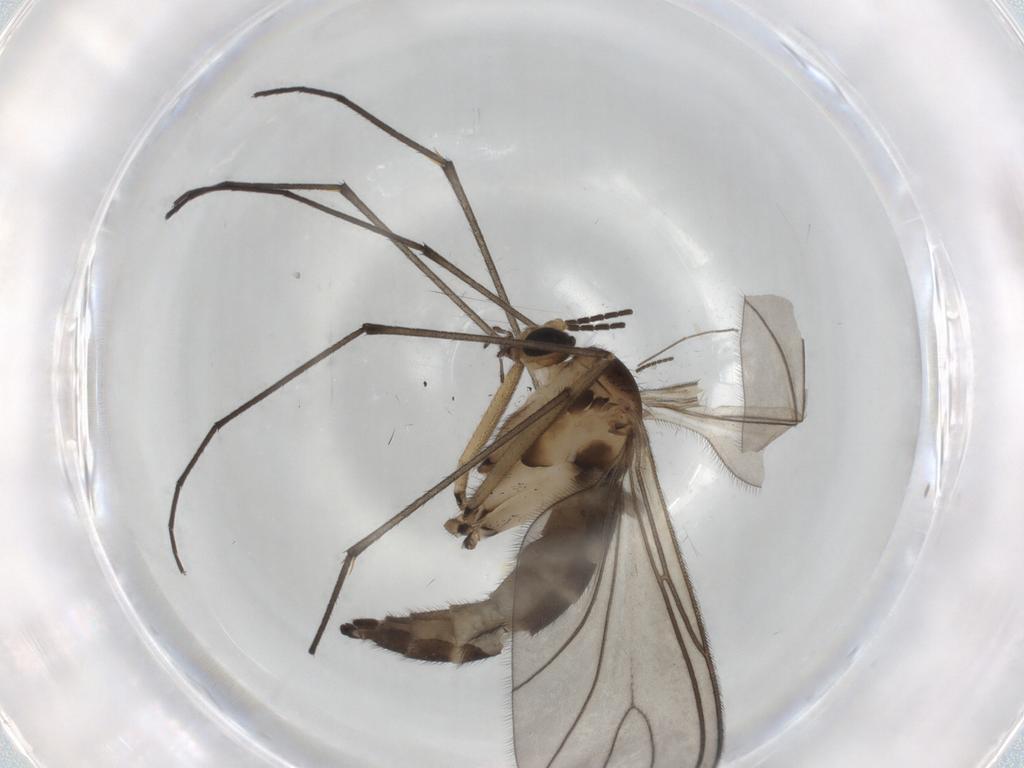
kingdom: Animalia
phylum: Arthropoda
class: Insecta
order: Diptera
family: Sciaridae
